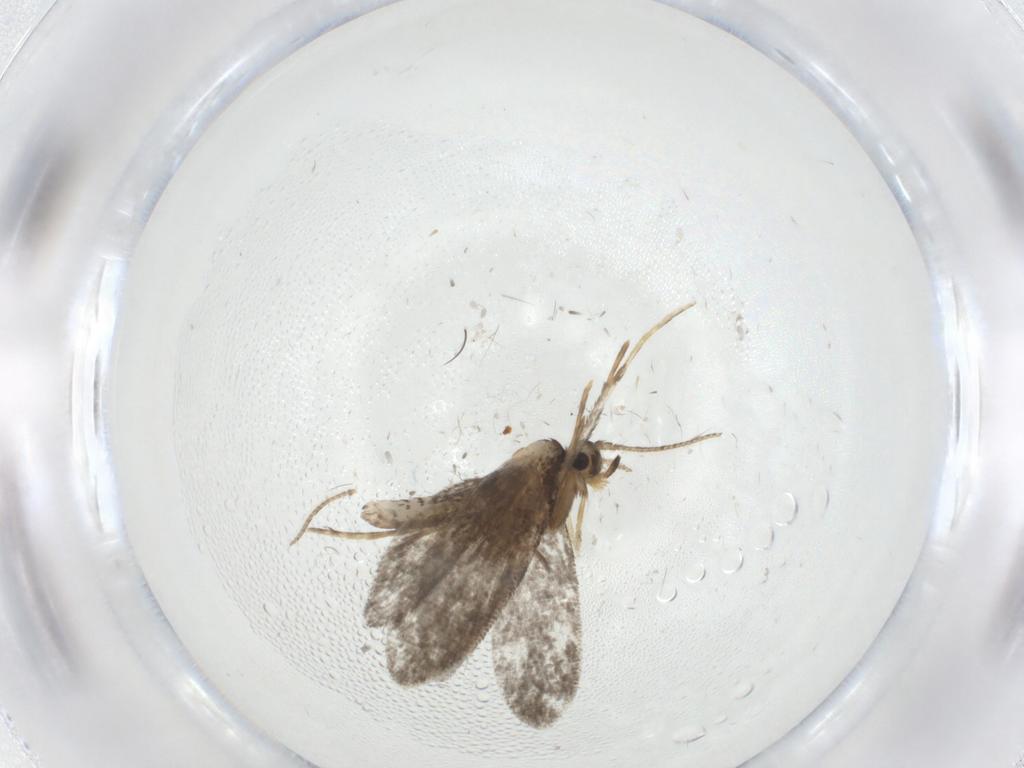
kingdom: Animalia
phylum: Arthropoda
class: Insecta
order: Lepidoptera
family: Psychidae
